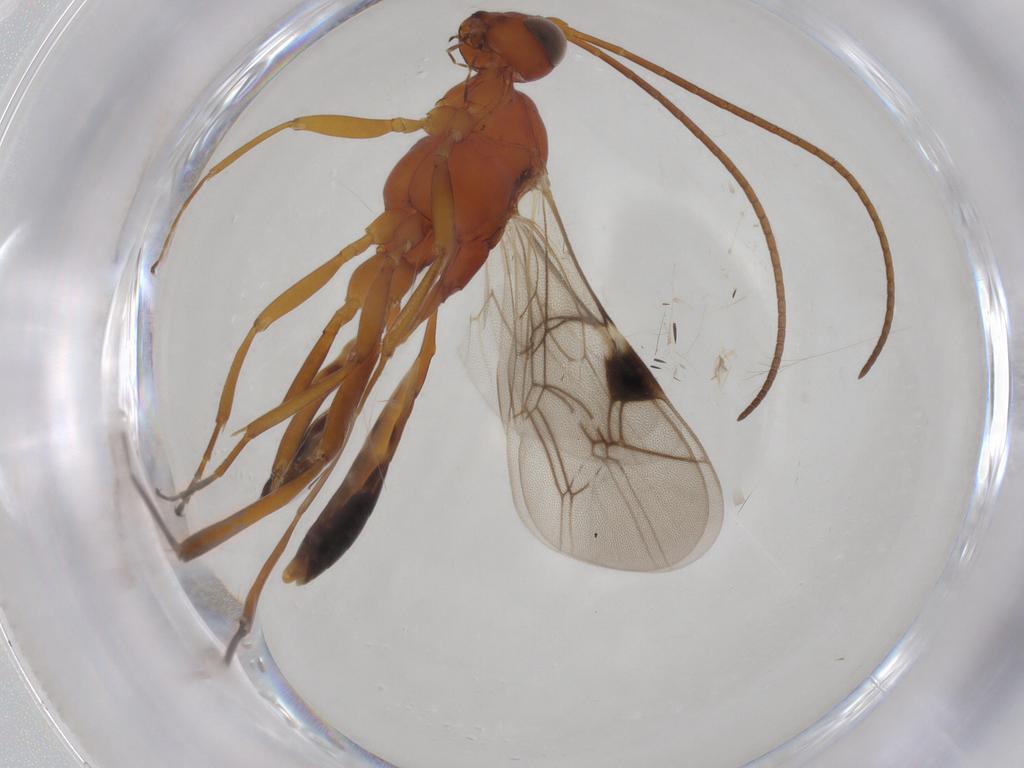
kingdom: Animalia
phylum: Arthropoda
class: Insecta
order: Hymenoptera
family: Ichneumonidae
